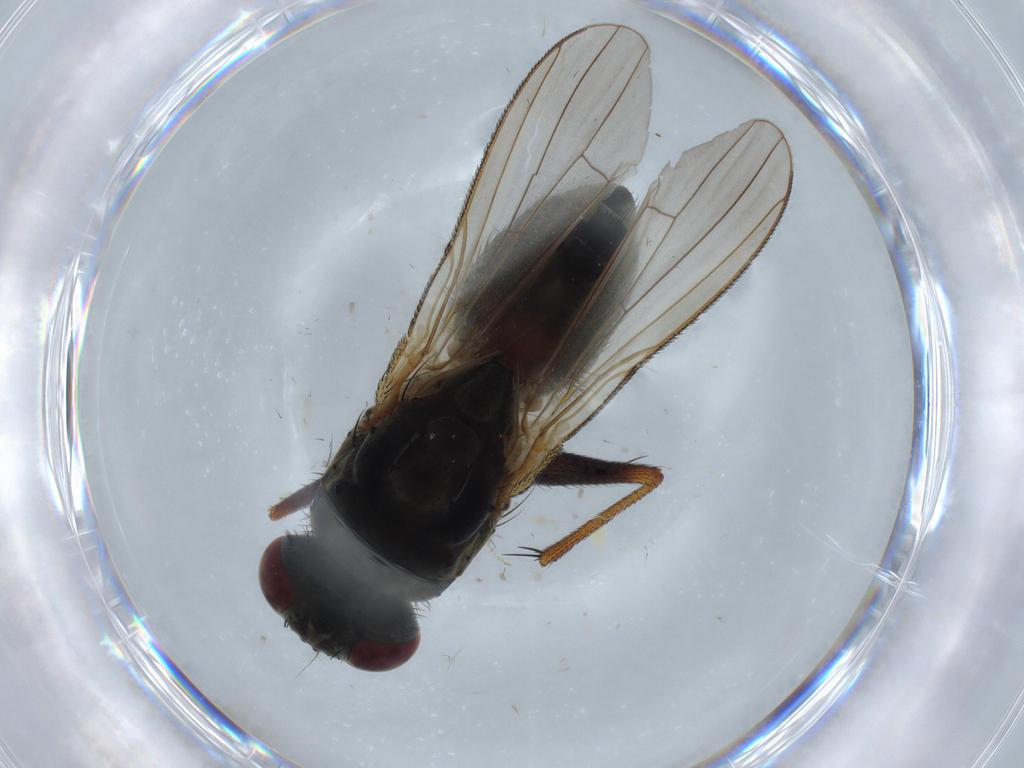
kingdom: Animalia
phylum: Arthropoda
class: Insecta
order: Diptera
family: Muscidae
